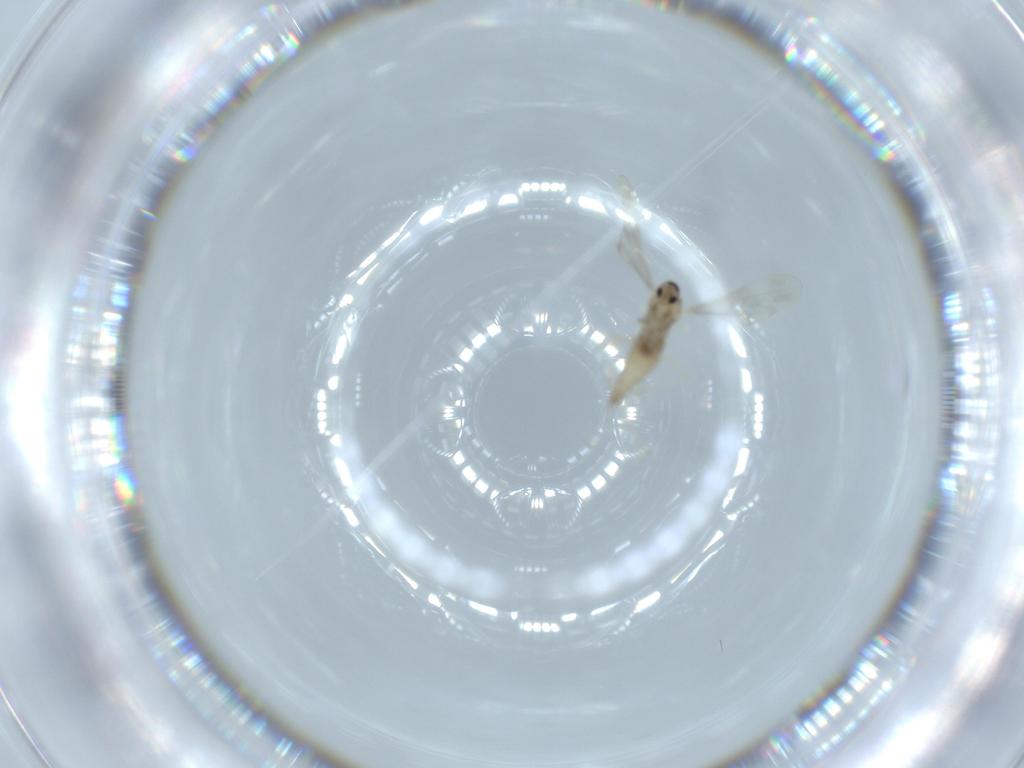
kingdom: Animalia
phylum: Arthropoda
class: Insecta
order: Diptera
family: Cecidomyiidae
